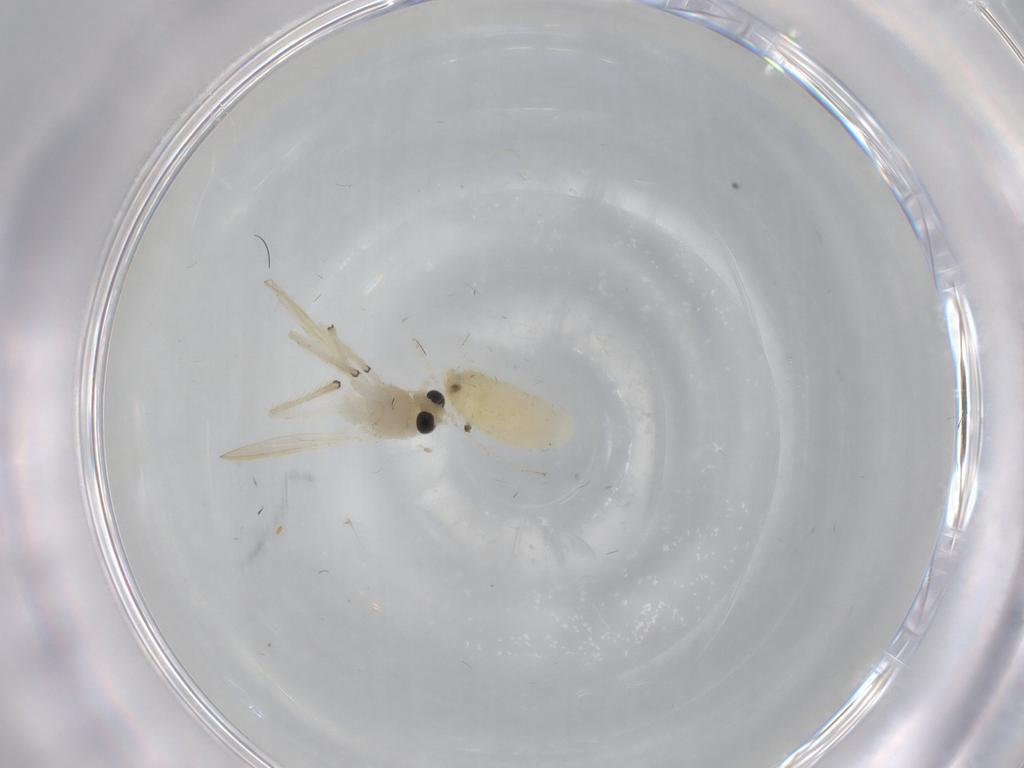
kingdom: Animalia
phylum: Arthropoda
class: Insecta
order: Diptera
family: Chironomidae
